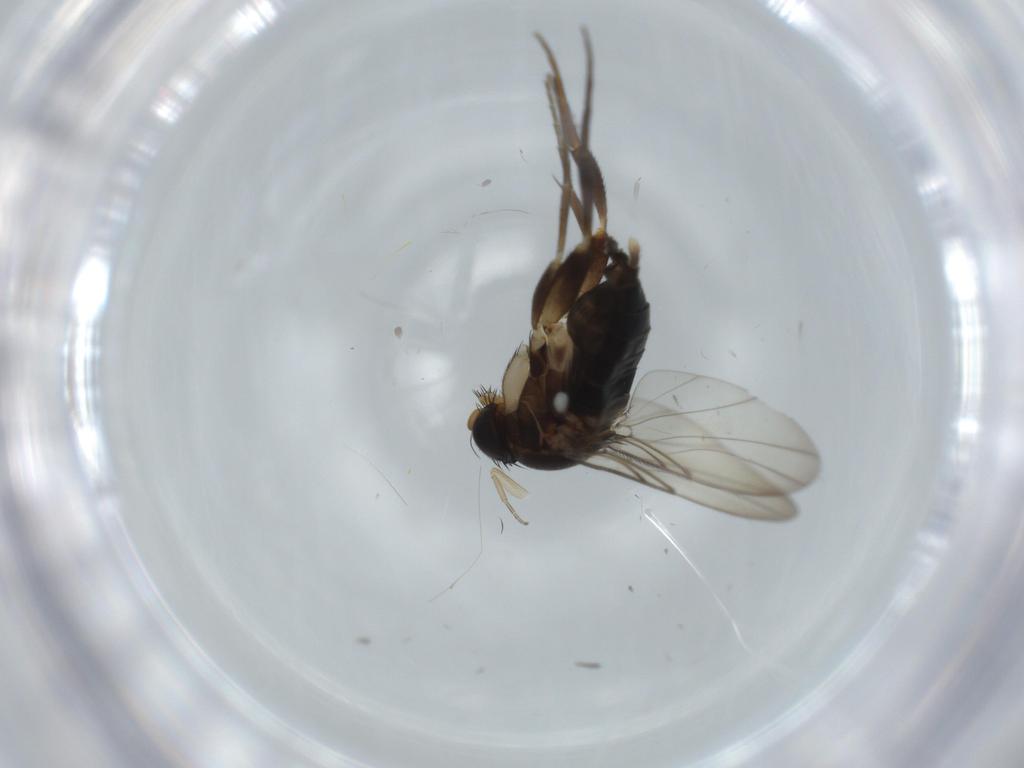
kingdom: Animalia
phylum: Arthropoda
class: Insecta
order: Diptera
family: Phoridae
